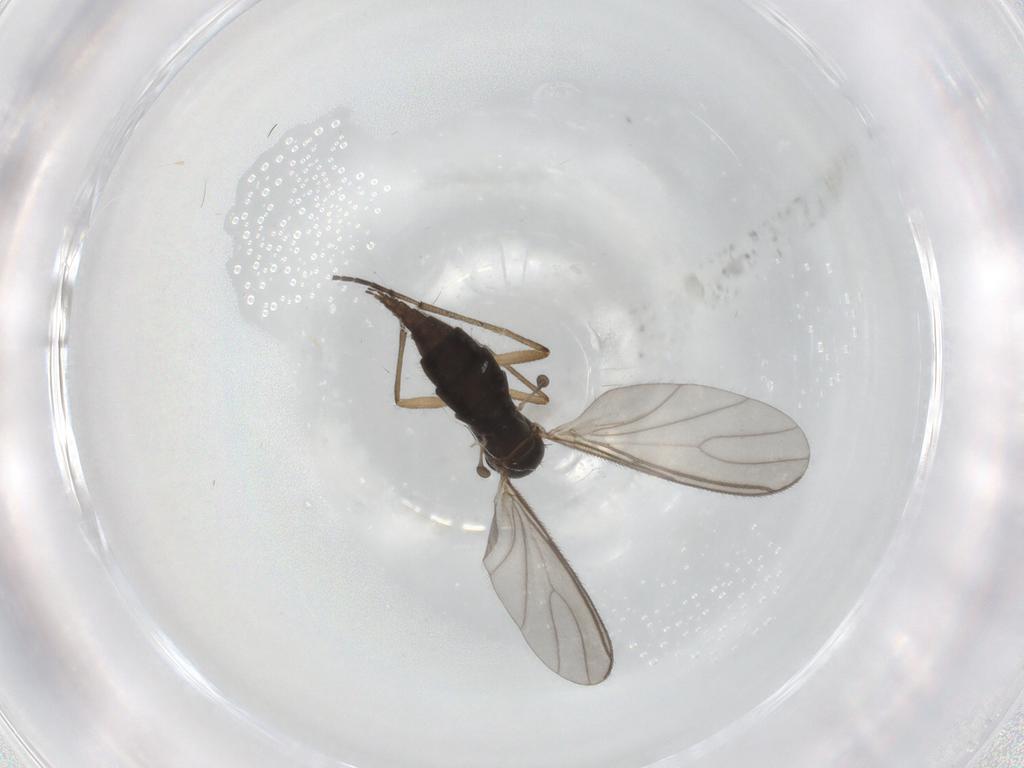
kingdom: Animalia
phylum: Arthropoda
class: Insecta
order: Diptera
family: Sciaridae
